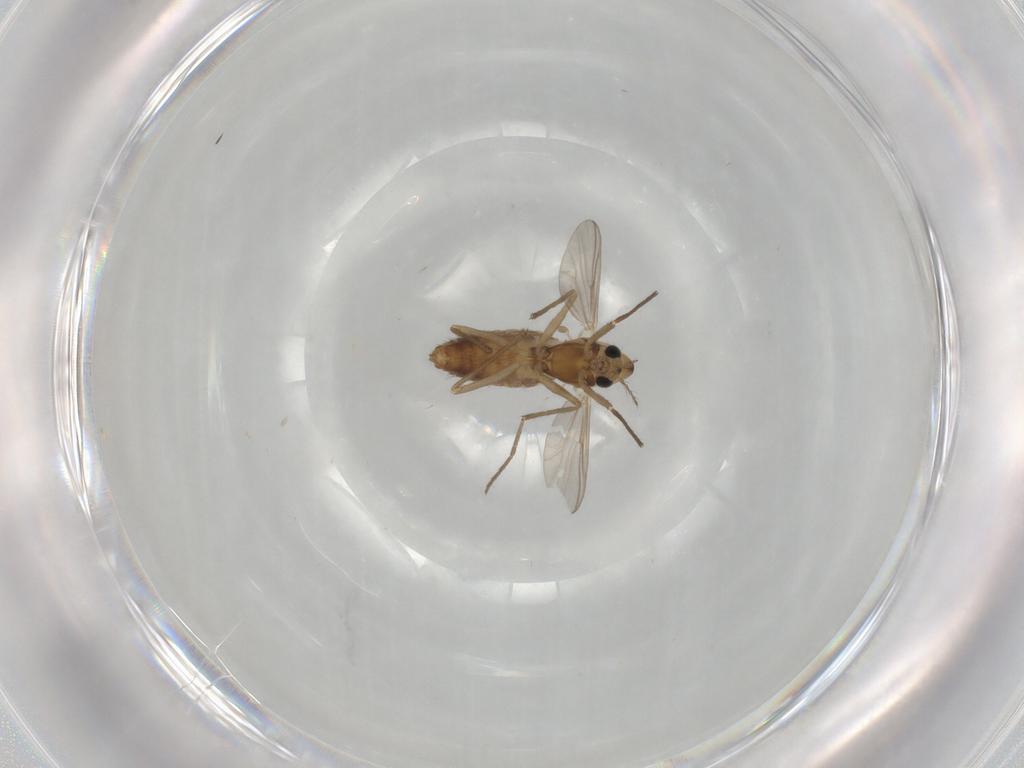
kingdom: Animalia
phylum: Arthropoda
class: Insecta
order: Diptera
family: Chironomidae
